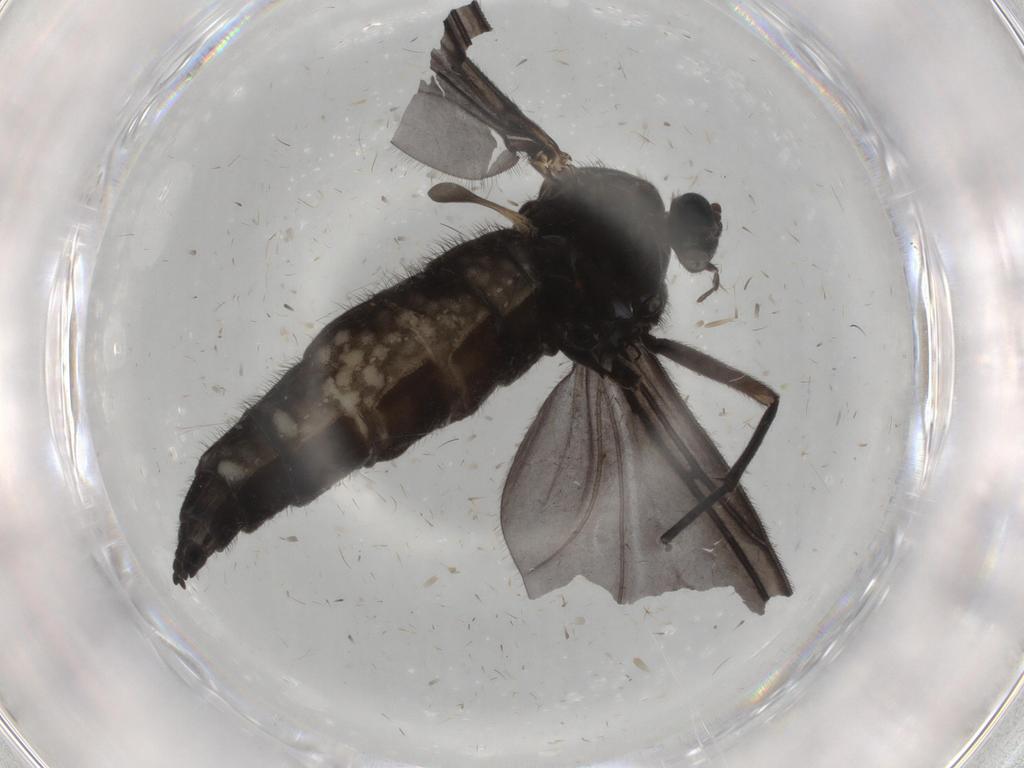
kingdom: Animalia
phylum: Arthropoda
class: Insecta
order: Diptera
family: Sciaridae
